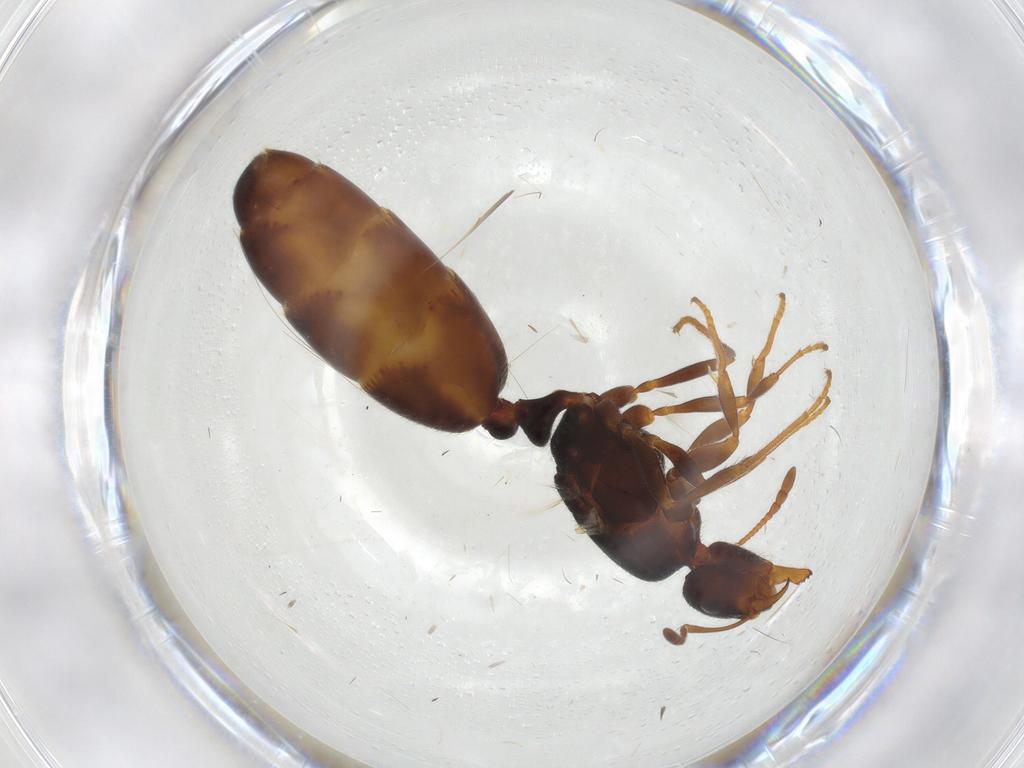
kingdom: Animalia
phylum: Arthropoda
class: Insecta
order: Hymenoptera
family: Formicidae
